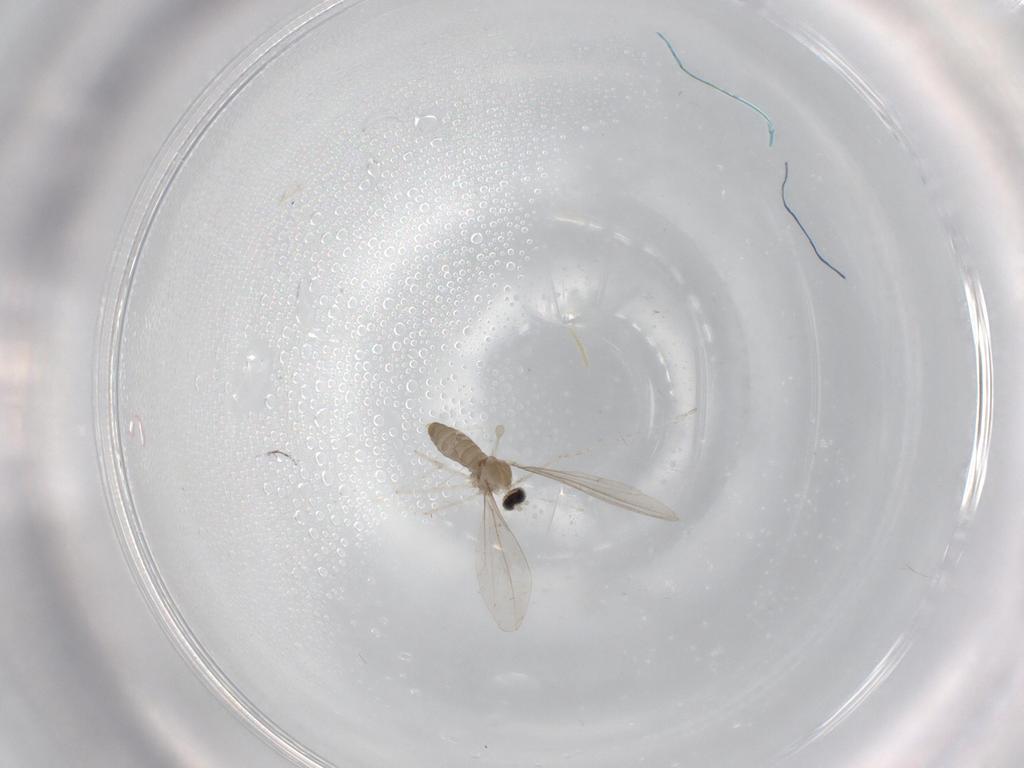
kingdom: Animalia
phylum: Arthropoda
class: Insecta
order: Diptera
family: Cecidomyiidae
